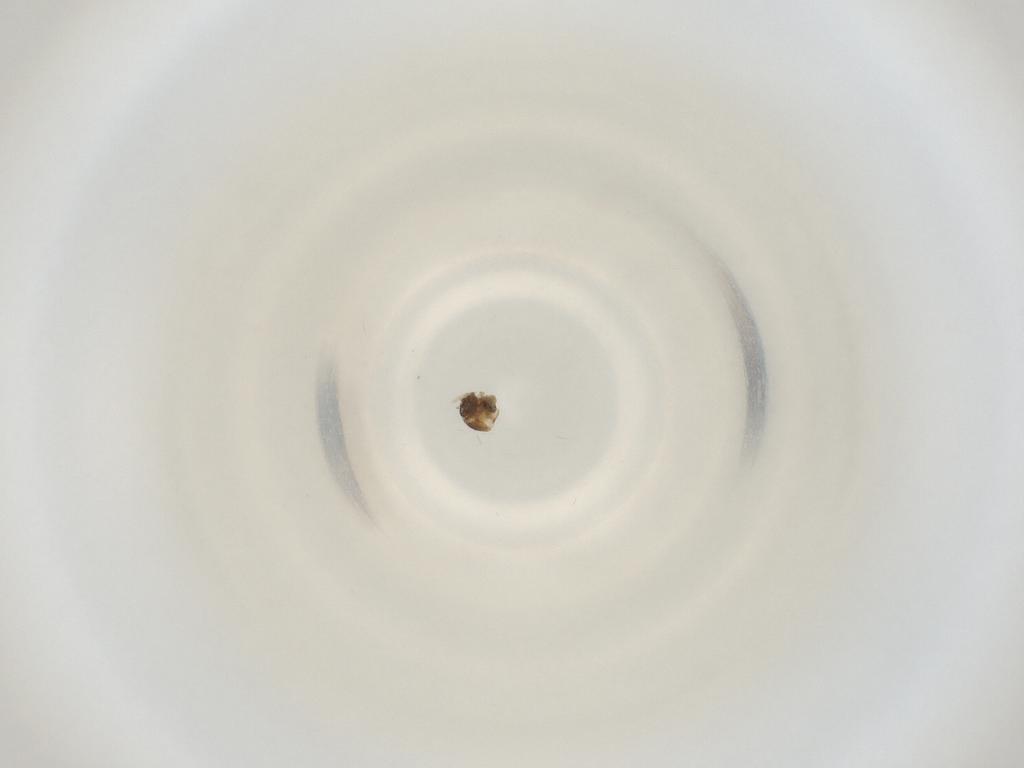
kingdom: Animalia
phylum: Arthropoda
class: Insecta
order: Diptera
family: Cecidomyiidae
